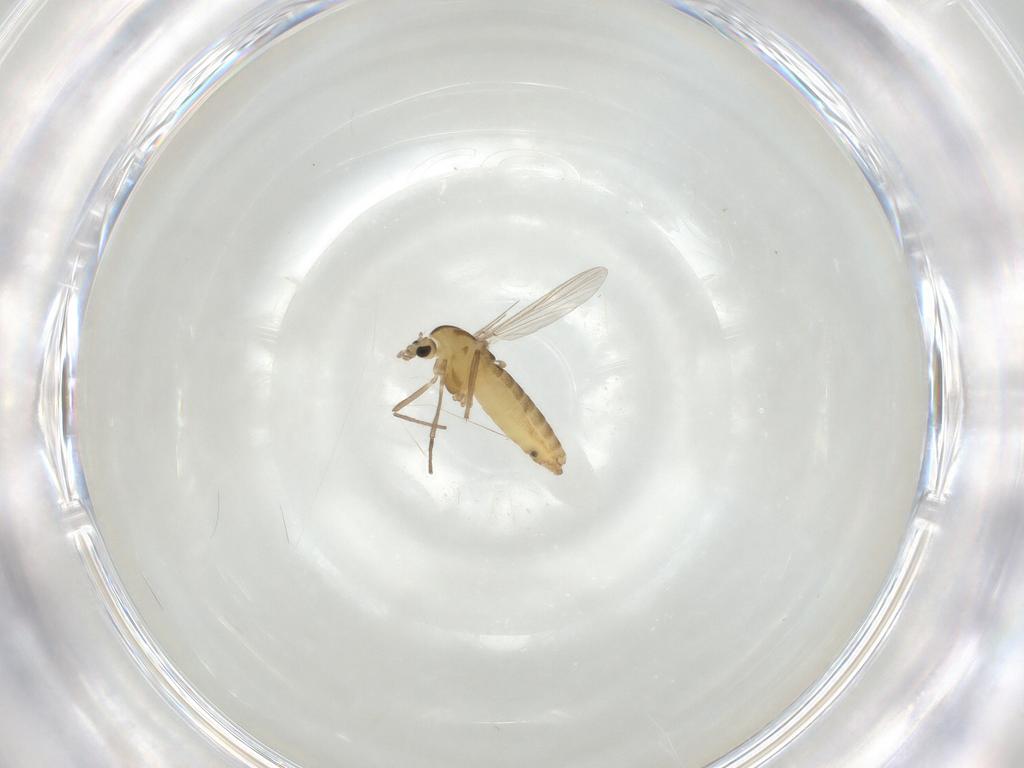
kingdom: Animalia
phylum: Arthropoda
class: Insecta
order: Diptera
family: Chironomidae
